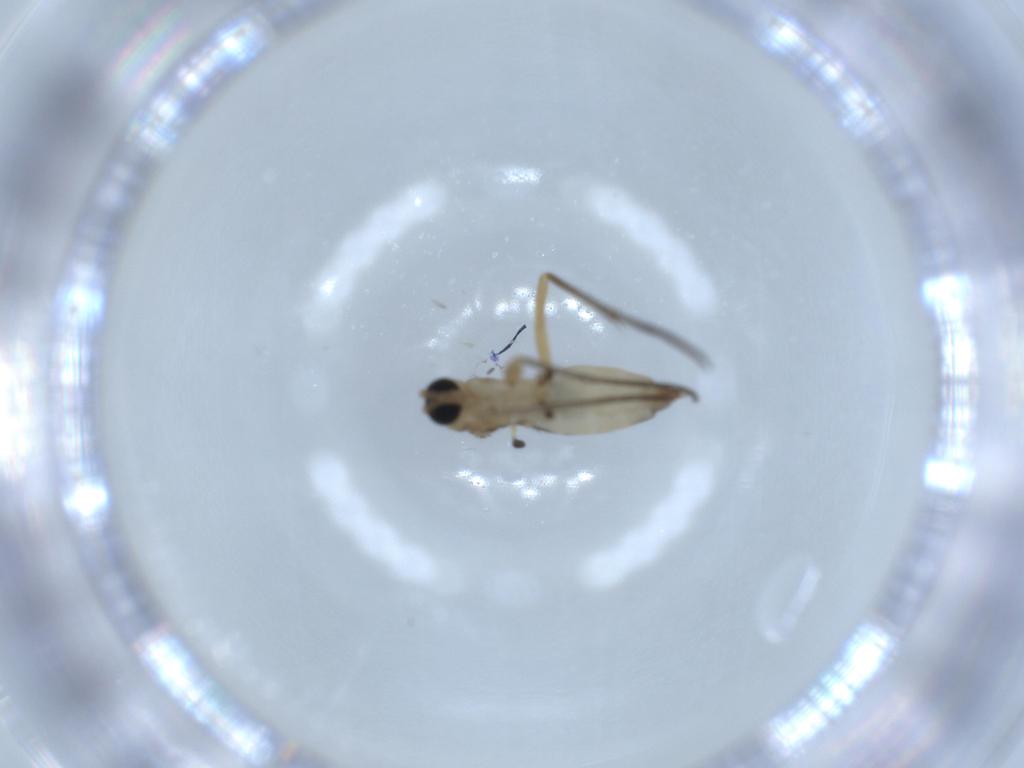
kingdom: Animalia
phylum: Arthropoda
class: Insecta
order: Diptera
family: Sciaridae
